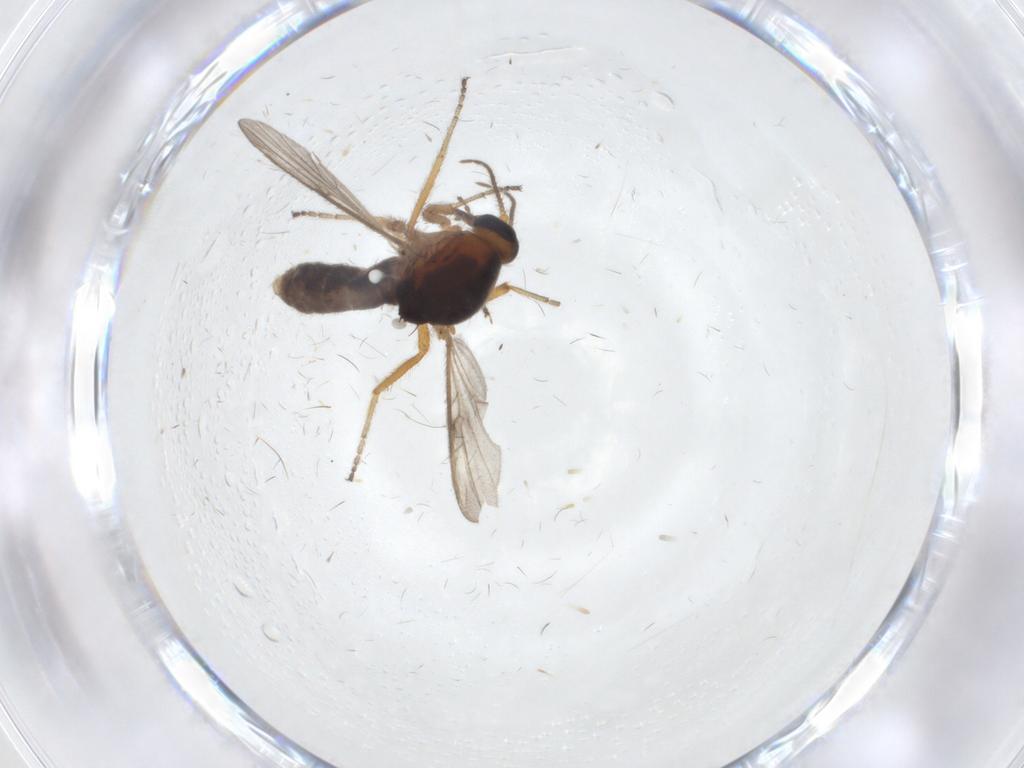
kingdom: Animalia
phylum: Arthropoda
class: Insecta
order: Diptera
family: Ceratopogonidae
